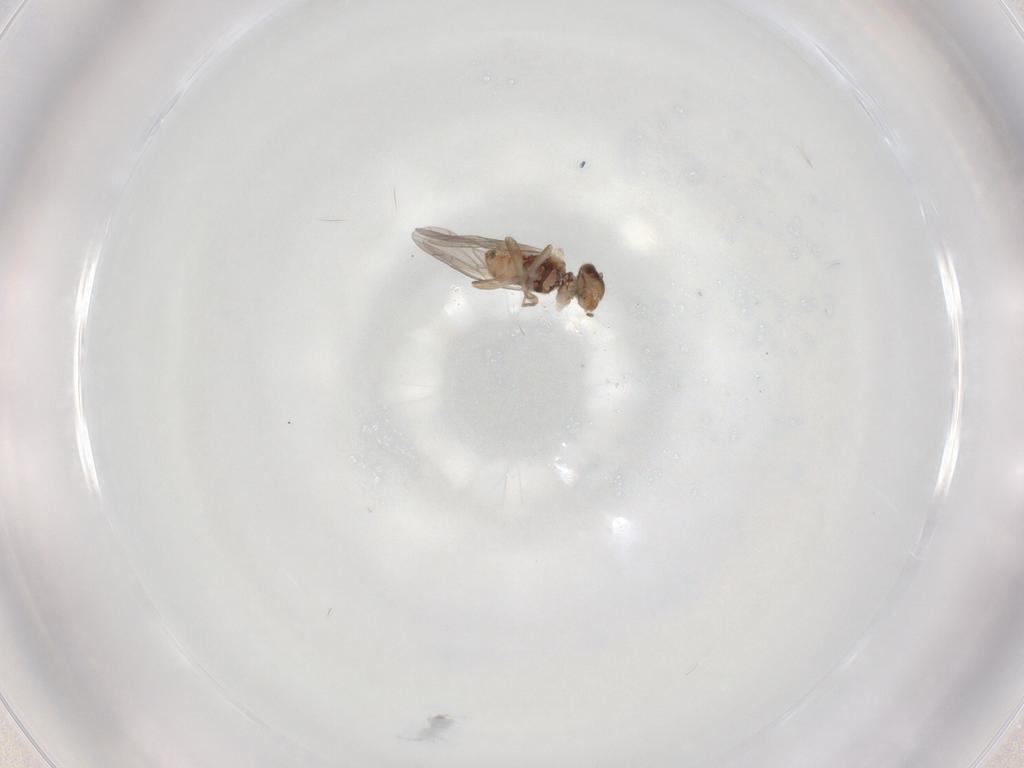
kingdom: Animalia
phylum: Arthropoda
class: Insecta
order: Psocodea
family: Peripsocidae
